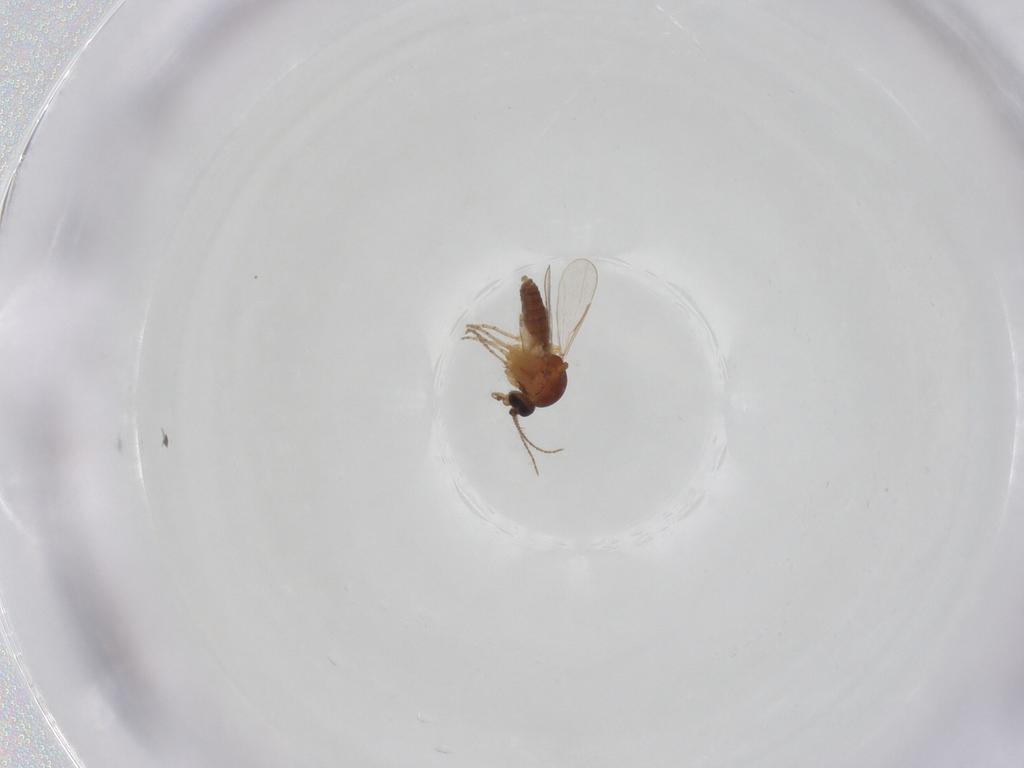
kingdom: Animalia
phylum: Arthropoda
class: Insecta
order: Diptera
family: Ceratopogonidae
